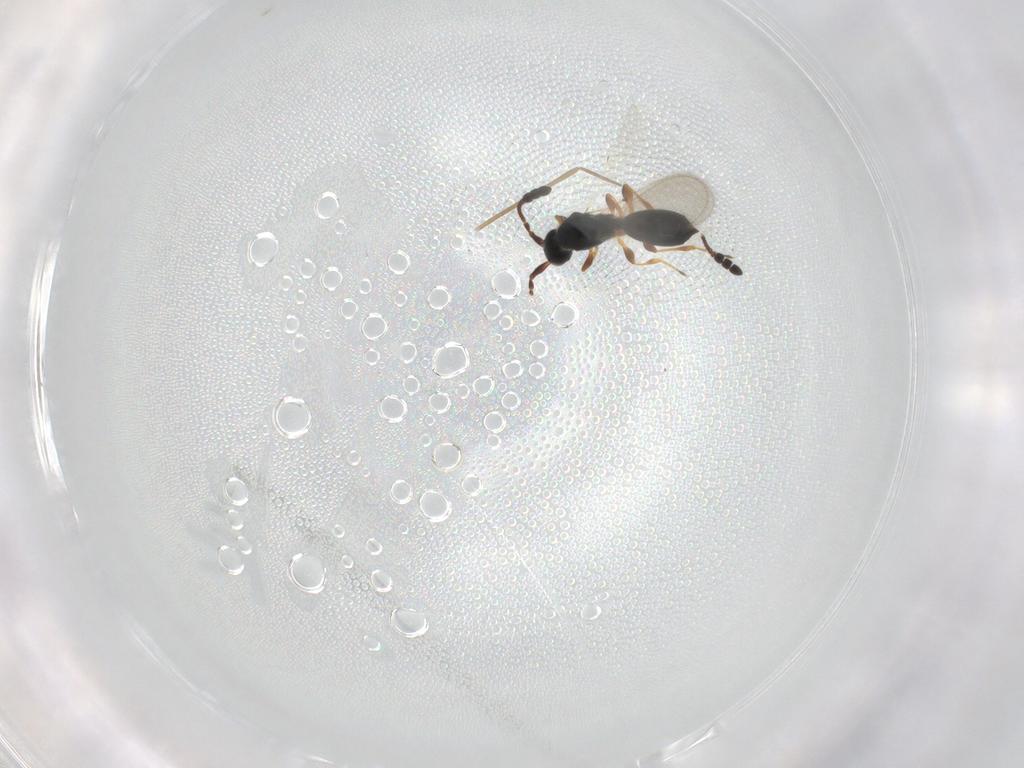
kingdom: Animalia
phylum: Arthropoda
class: Insecta
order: Hymenoptera
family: Diapriidae
